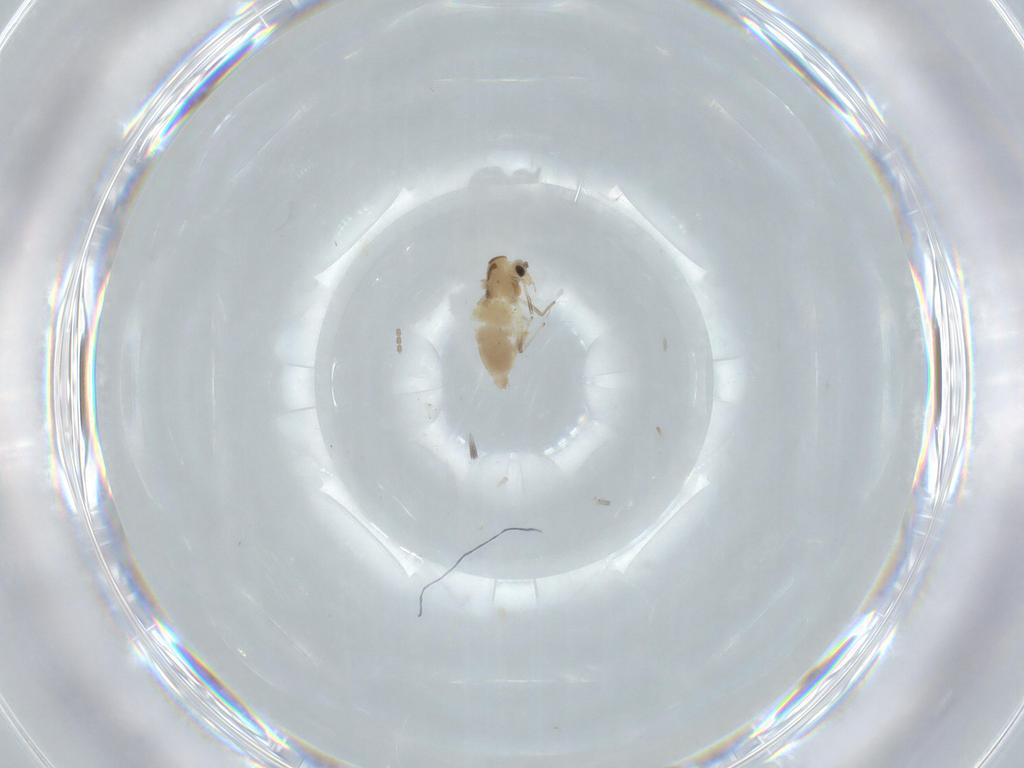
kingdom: Animalia
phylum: Arthropoda
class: Insecta
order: Diptera
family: Chironomidae
